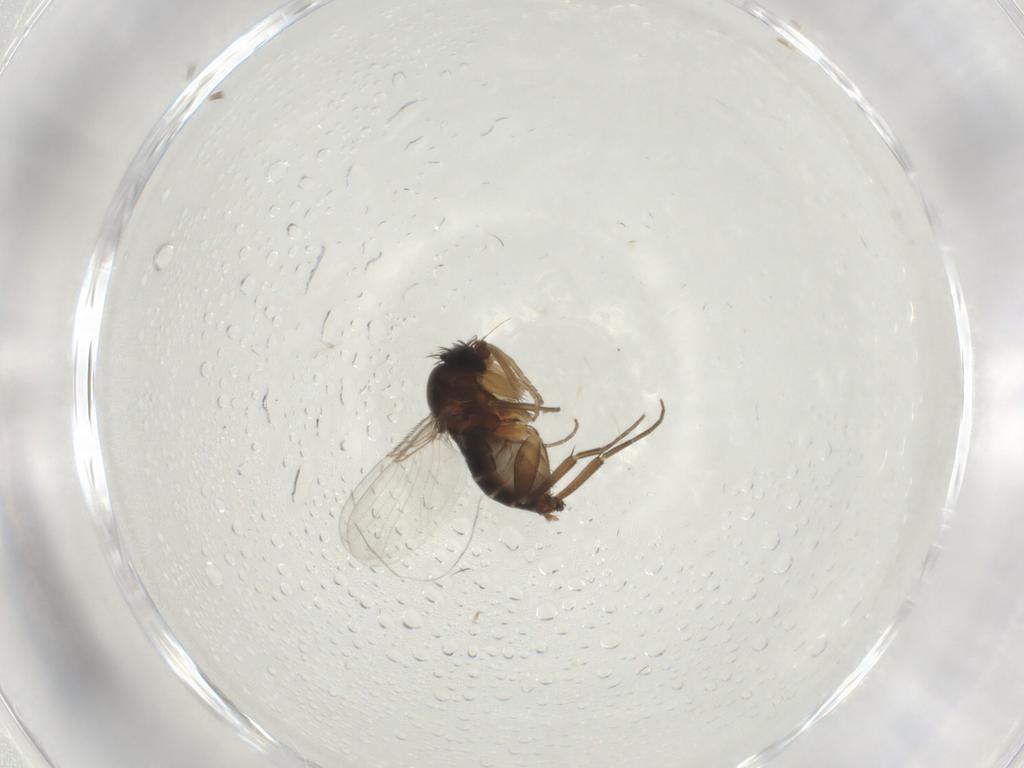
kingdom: Animalia
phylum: Arthropoda
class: Insecta
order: Diptera
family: Phoridae
